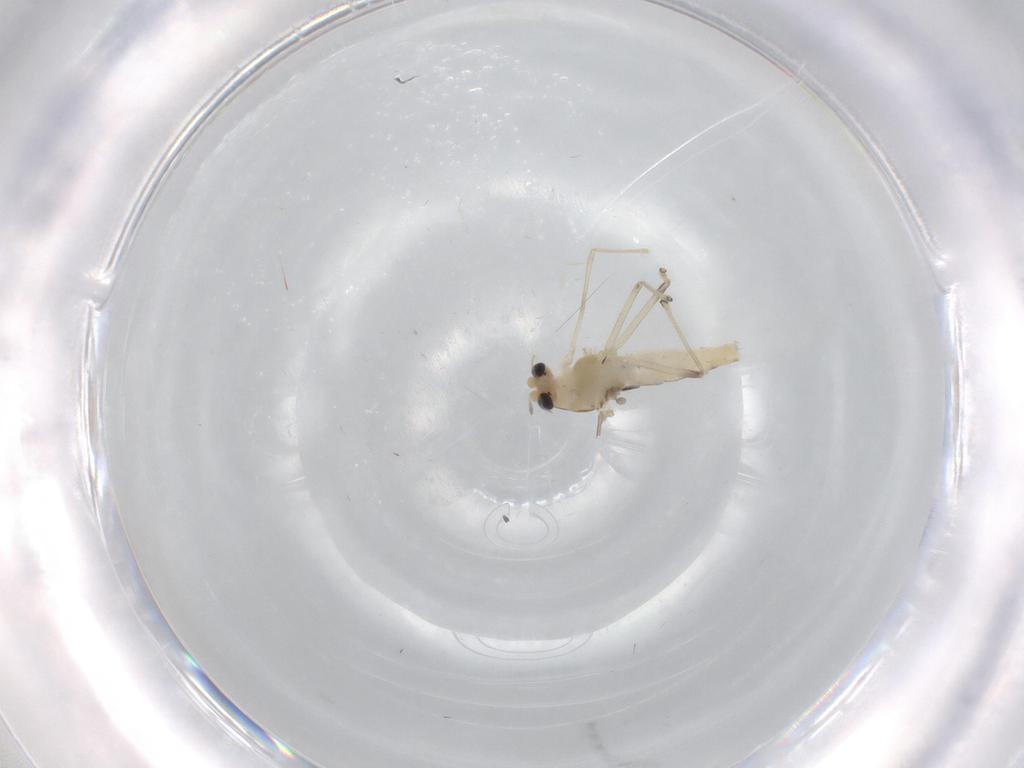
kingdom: Animalia
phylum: Arthropoda
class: Insecta
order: Diptera
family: Chironomidae
